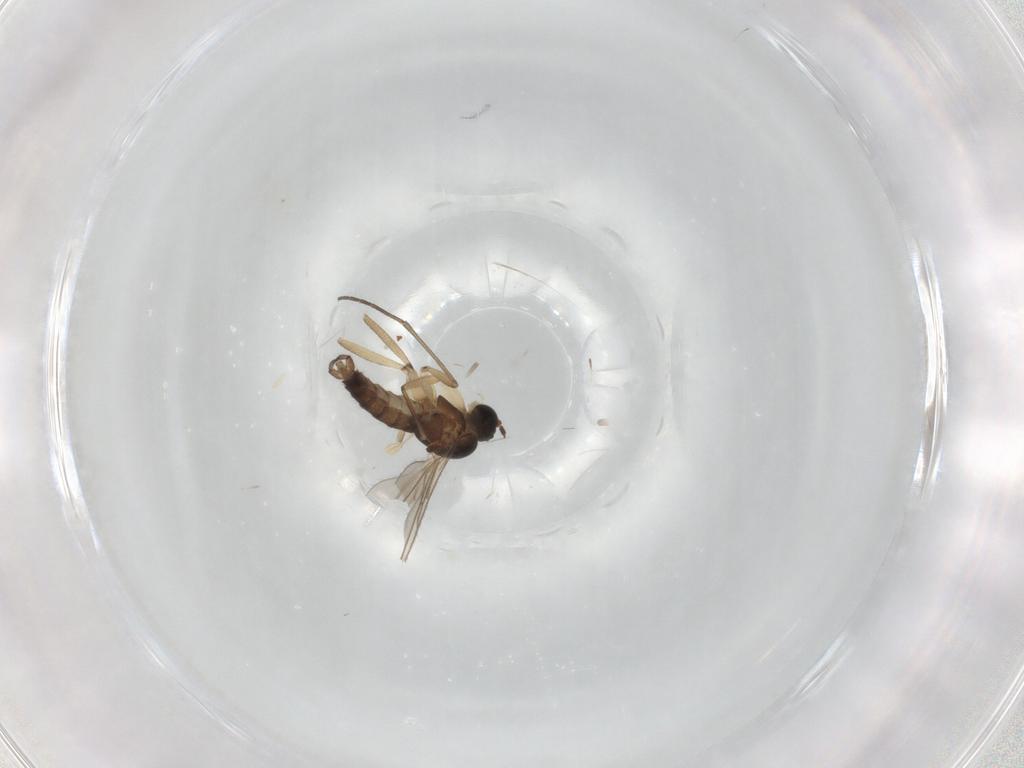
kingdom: Animalia
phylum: Arthropoda
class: Insecta
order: Diptera
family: Sciaridae
